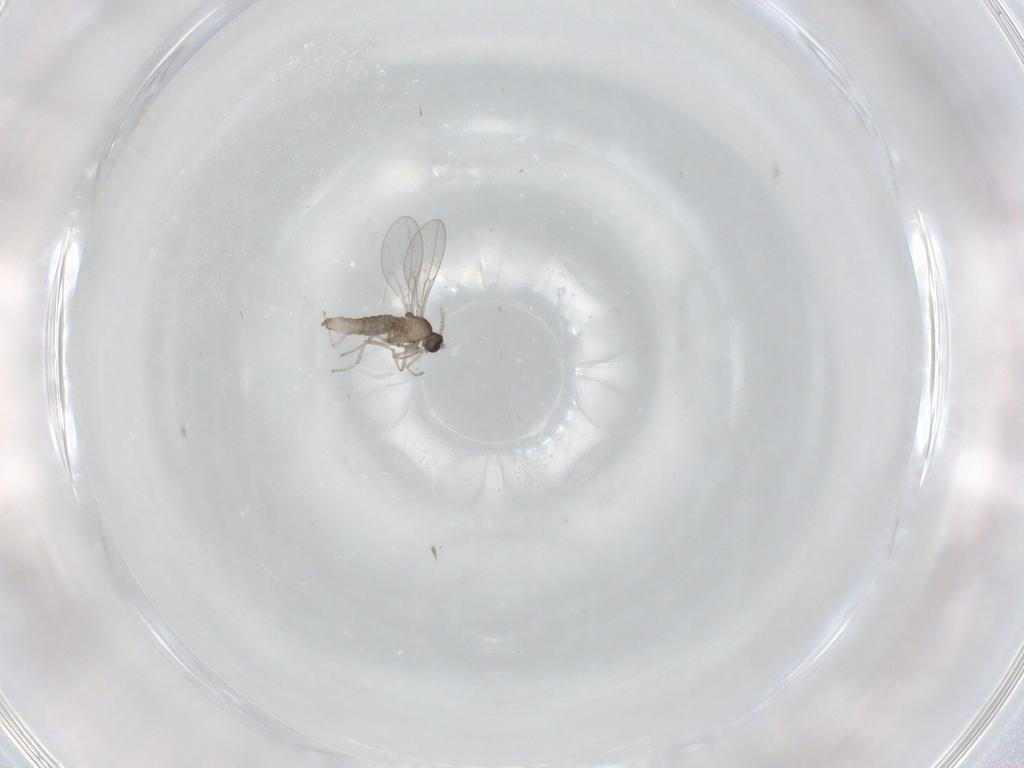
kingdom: Animalia
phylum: Arthropoda
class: Insecta
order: Diptera
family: Cecidomyiidae
